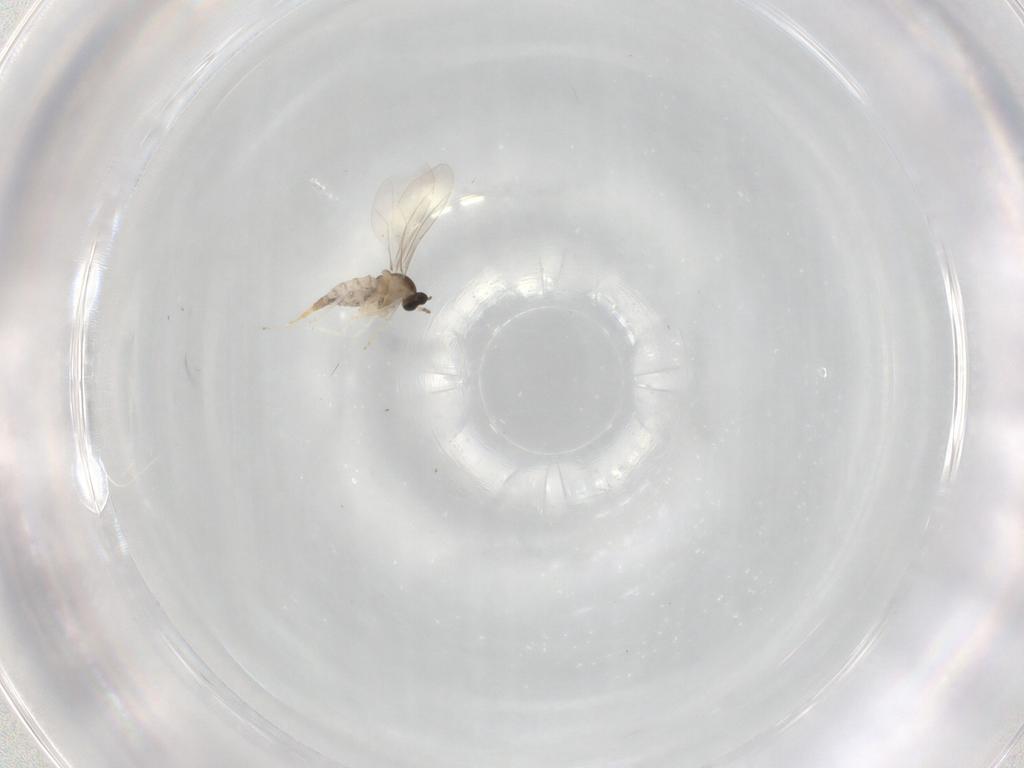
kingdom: Animalia
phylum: Arthropoda
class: Insecta
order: Diptera
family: Cecidomyiidae
